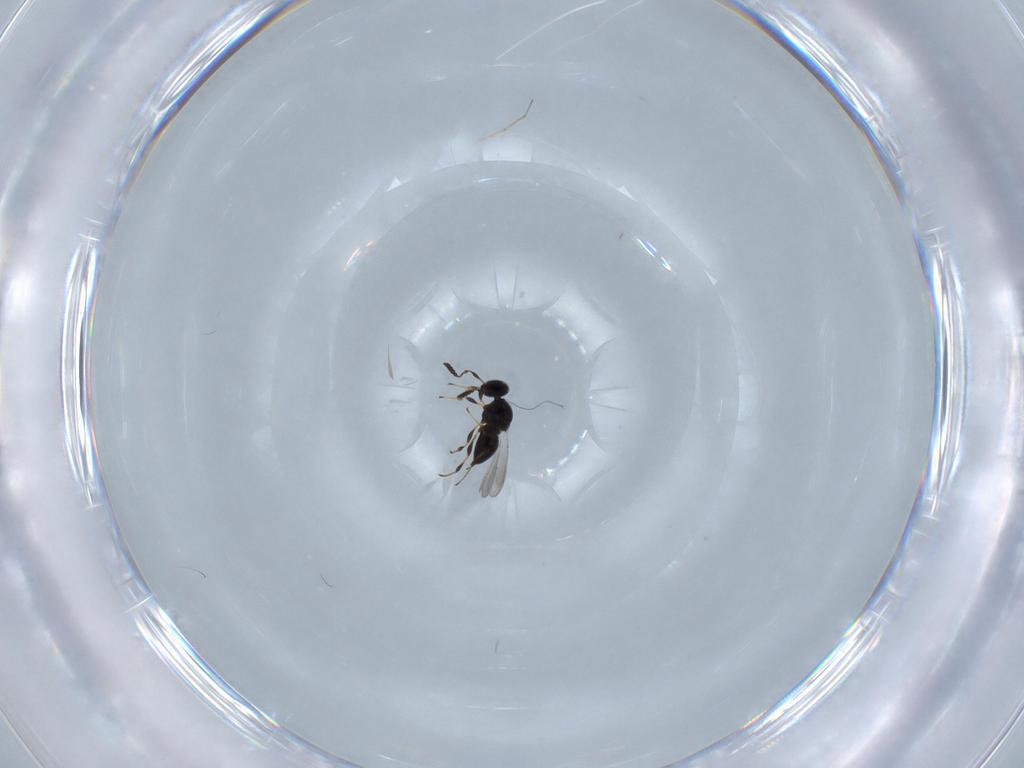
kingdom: Animalia
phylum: Arthropoda
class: Insecta
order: Hymenoptera
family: Platygastridae
